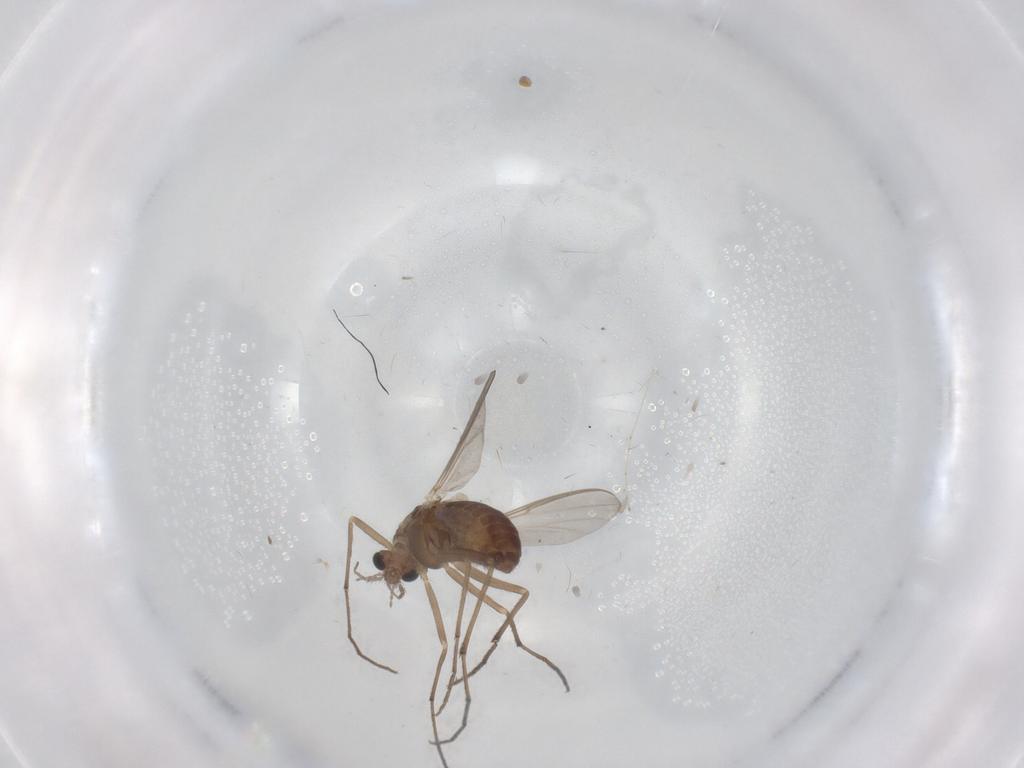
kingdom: Animalia
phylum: Arthropoda
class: Insecta
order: Diptera
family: Chironomidae
